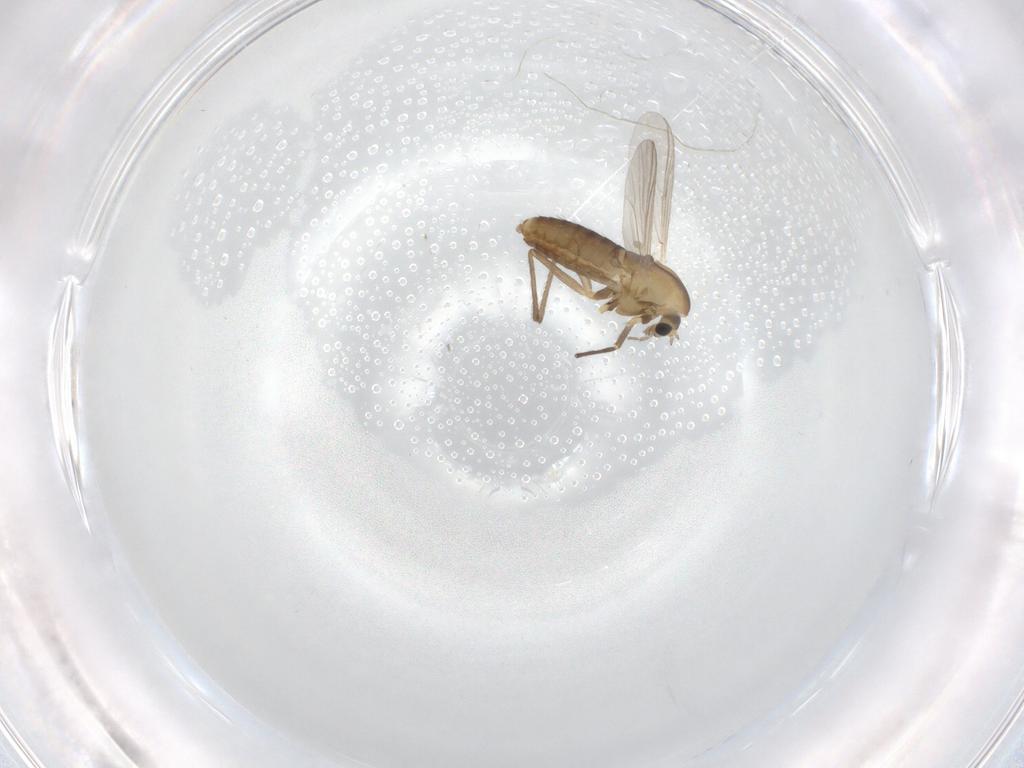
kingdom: Animalia
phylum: Arthropoda
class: Insecta
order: Diptera
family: Chironomidae
